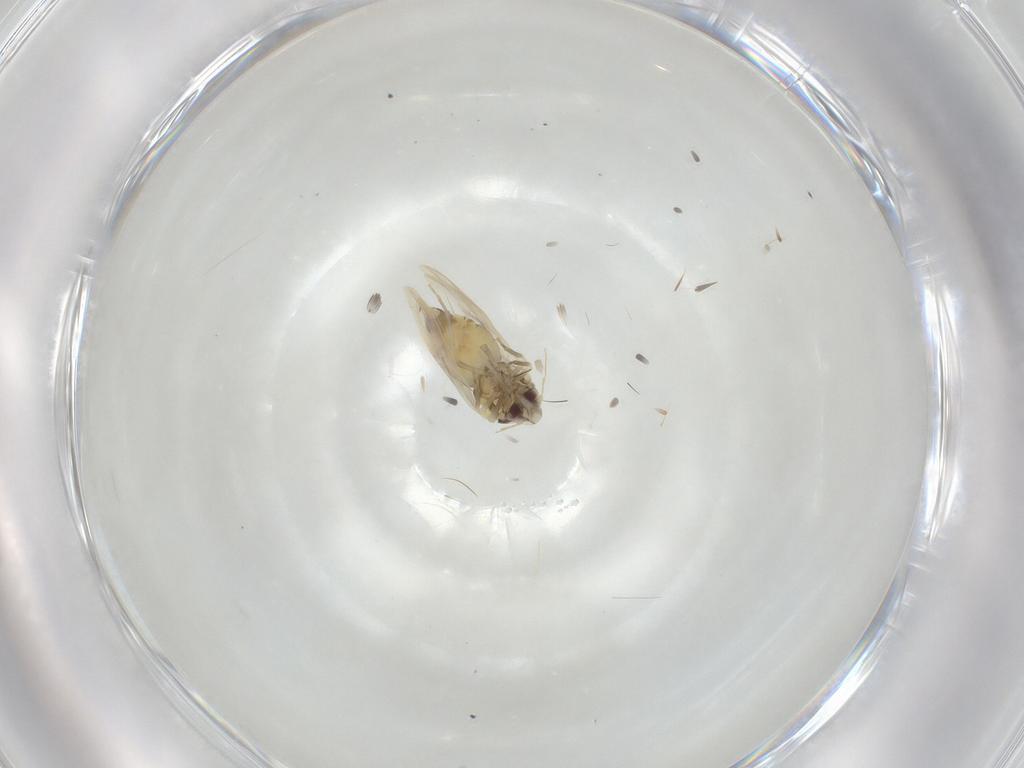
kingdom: Animalia
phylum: Arthropoda
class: Insecta
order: Hemiptera
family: Aleyrodidae
